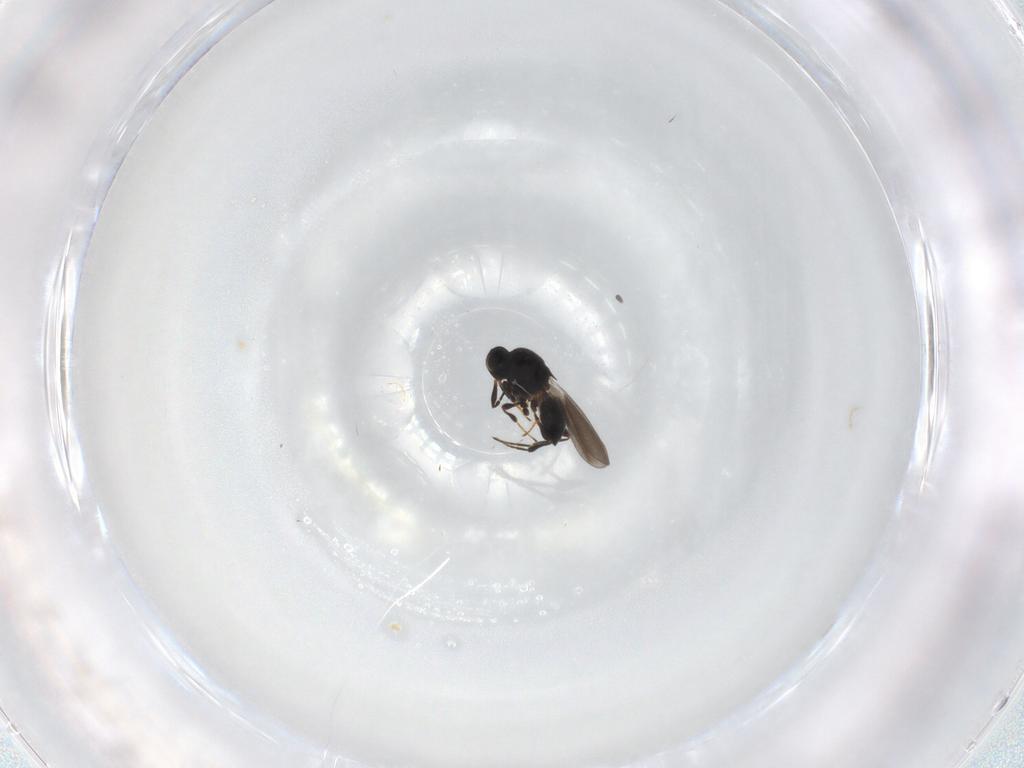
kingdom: Animalia
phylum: Arthropoda
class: Insecta
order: Hymenoptera
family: Platygastridae
